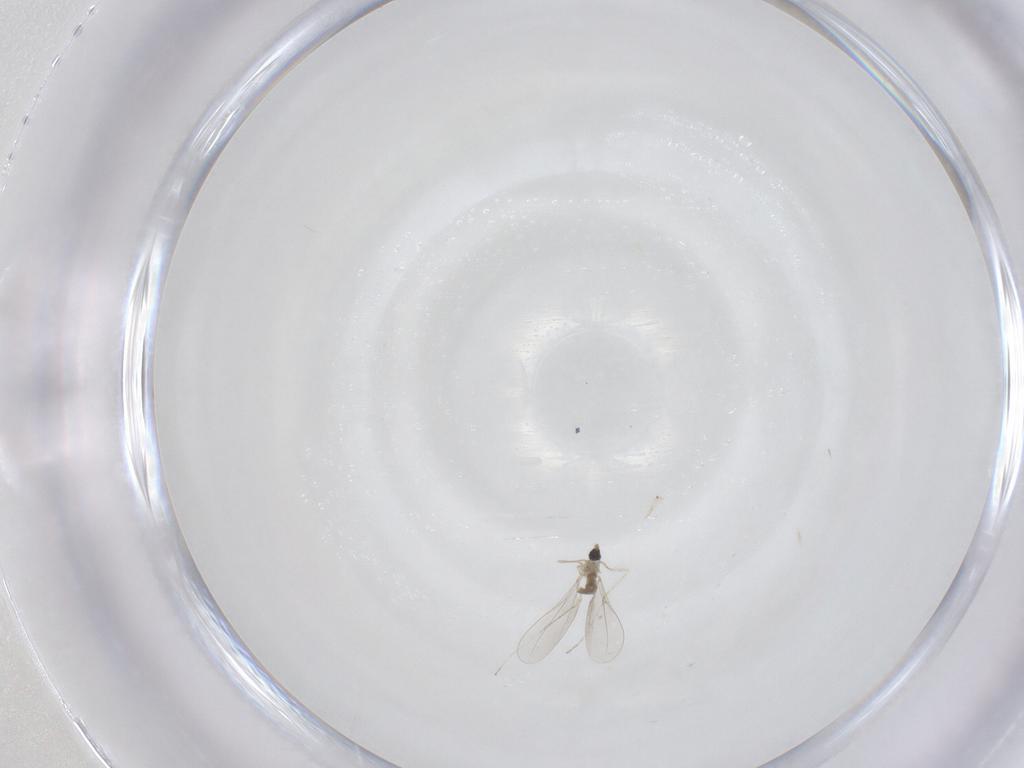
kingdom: Animalia
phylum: Arthropoda
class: Insecta
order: Diptera
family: Cecidomyiidae
